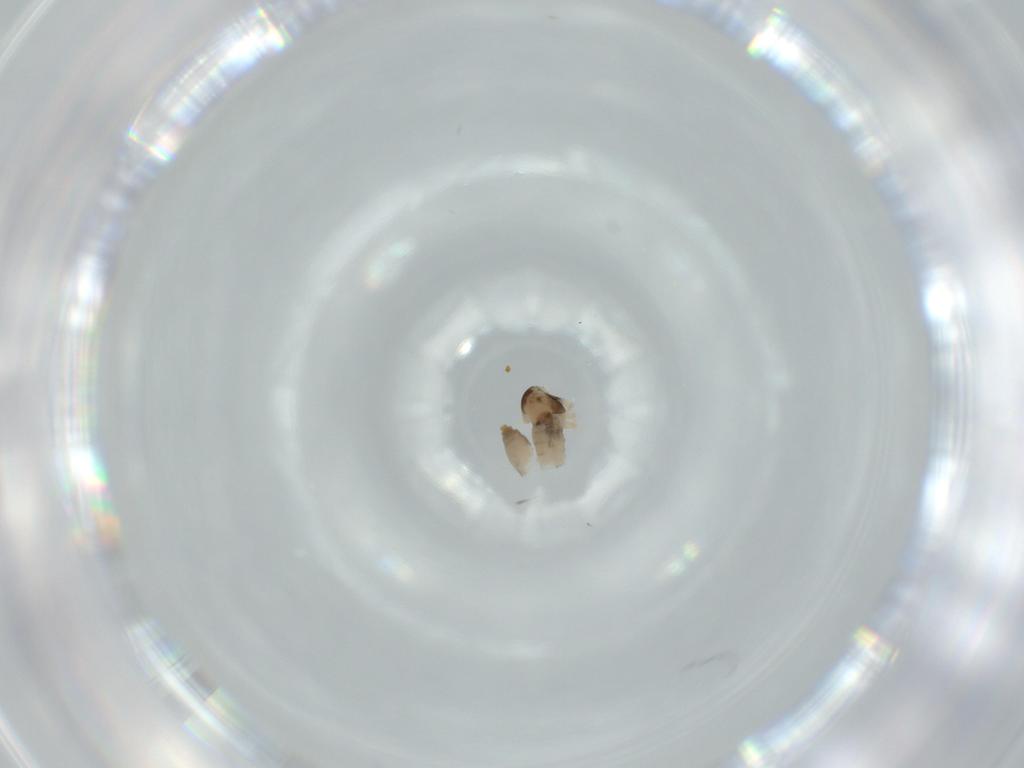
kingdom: Animalia
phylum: Arthropoda
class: Insecta
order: Diptera
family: Cecidomyiidae
